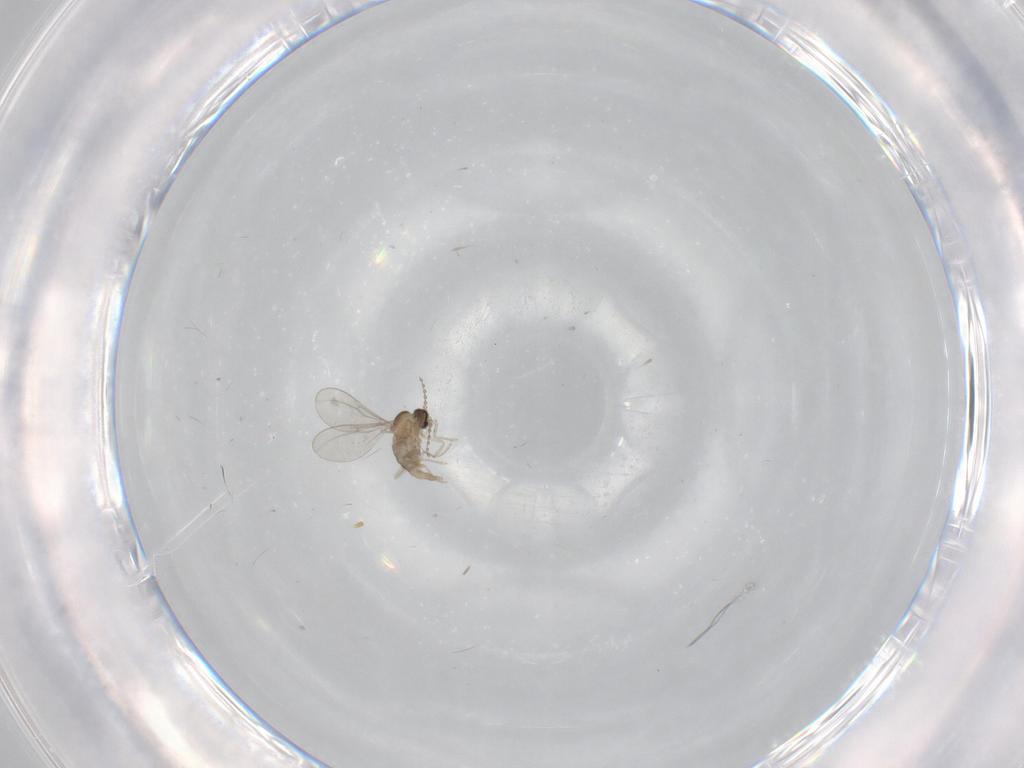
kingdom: Animalia
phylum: Arthropoda
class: Insecta
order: Diptera
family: Cecidomyiidae
